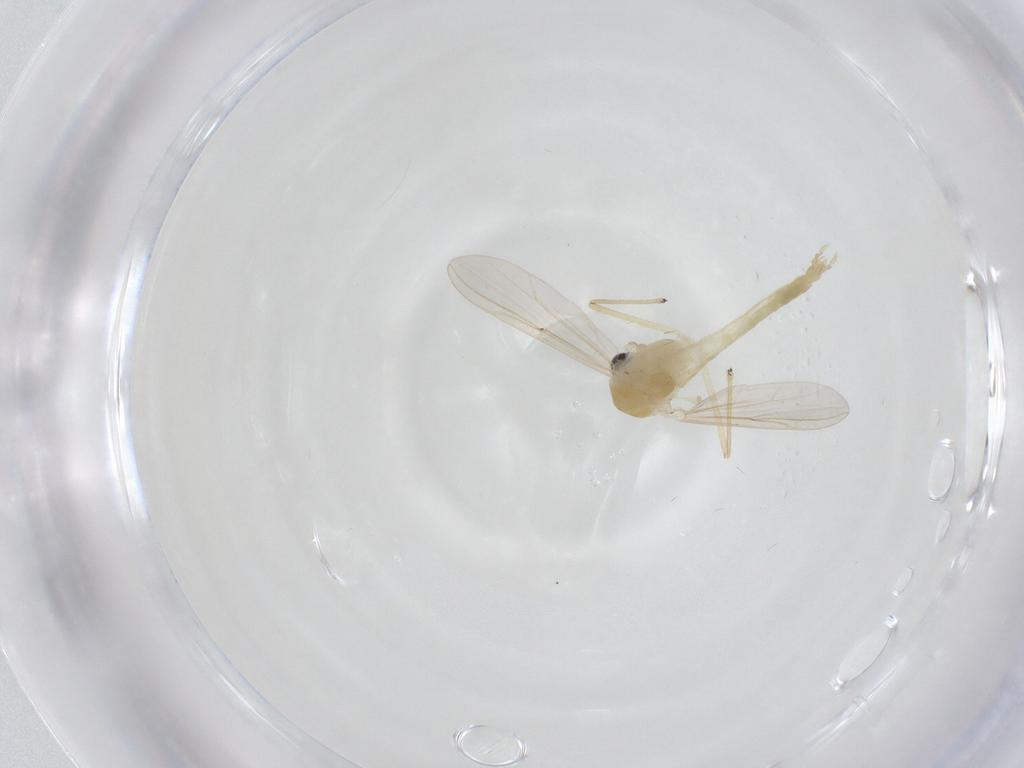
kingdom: Animalia
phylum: Arthropoda
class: Insecta
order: Diptera
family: Chironomidae
